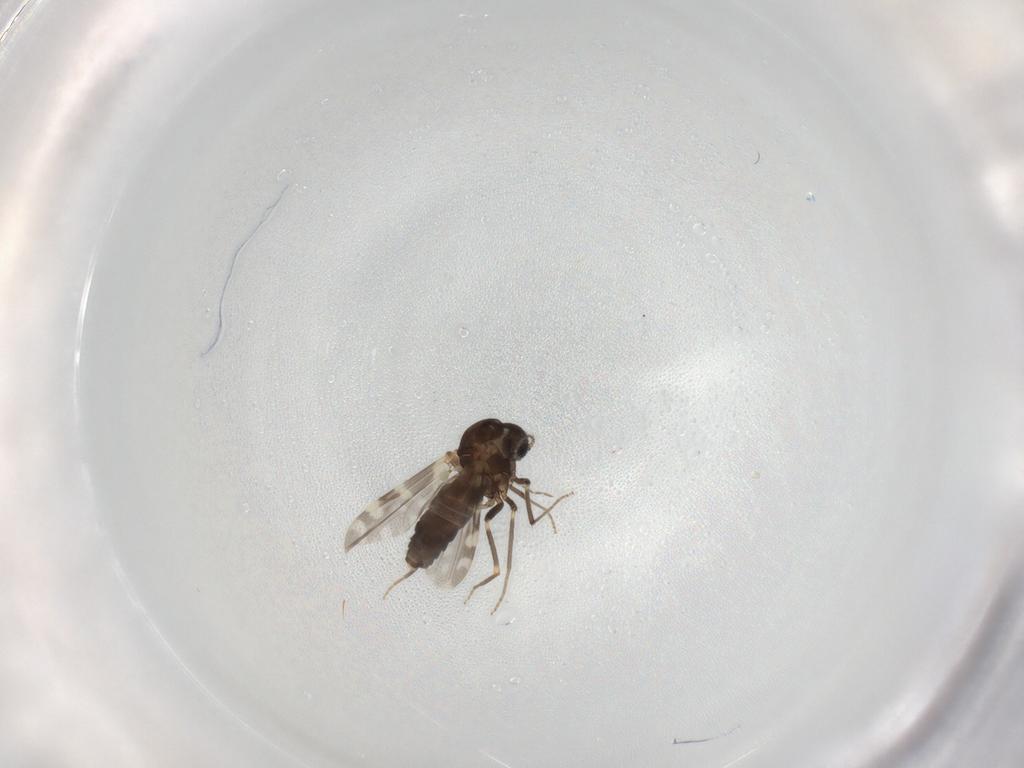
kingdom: Animalia
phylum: Arthropoda
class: Insecta
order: Diptera
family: Ceratopogonidae
